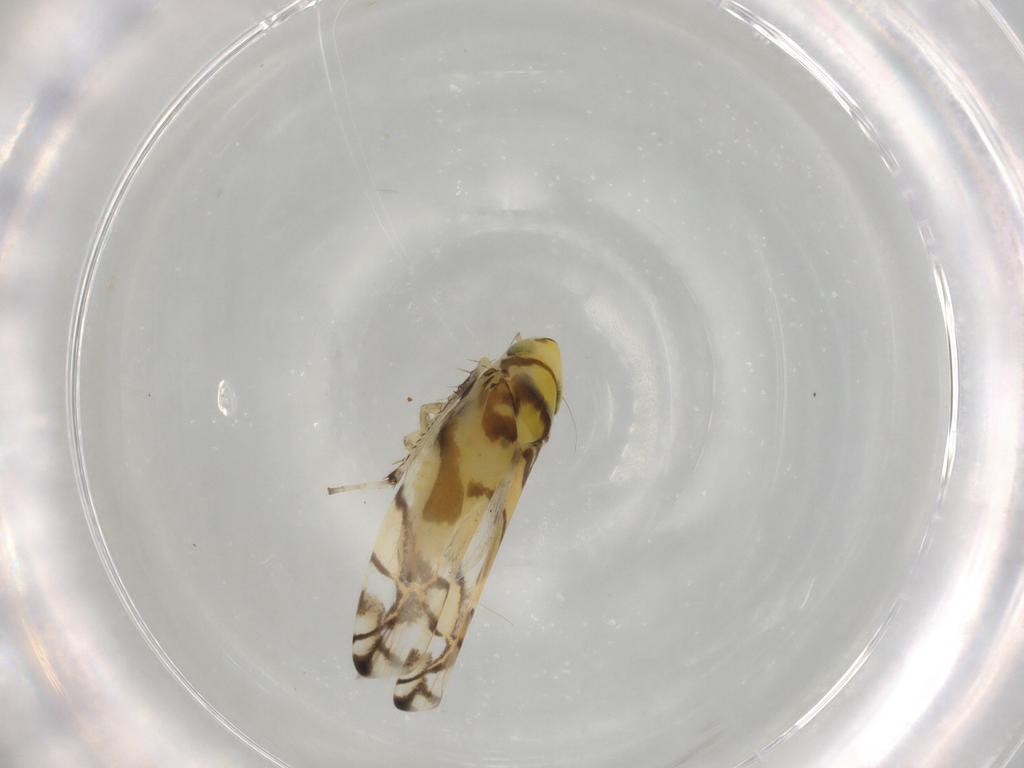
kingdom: Animalia
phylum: Arthropoda
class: Insecta
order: Hemiptera
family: Cicadellidae
